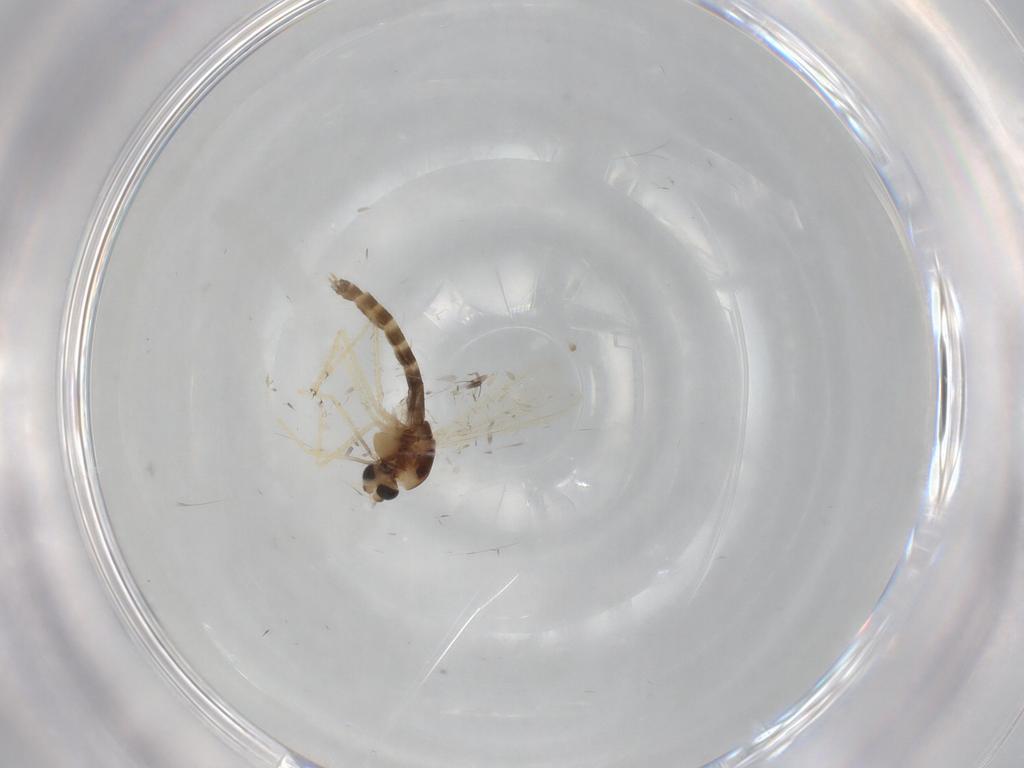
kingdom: Animalia
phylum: Arthropoda
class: Insecta
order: Diptera
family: Chironomidae
